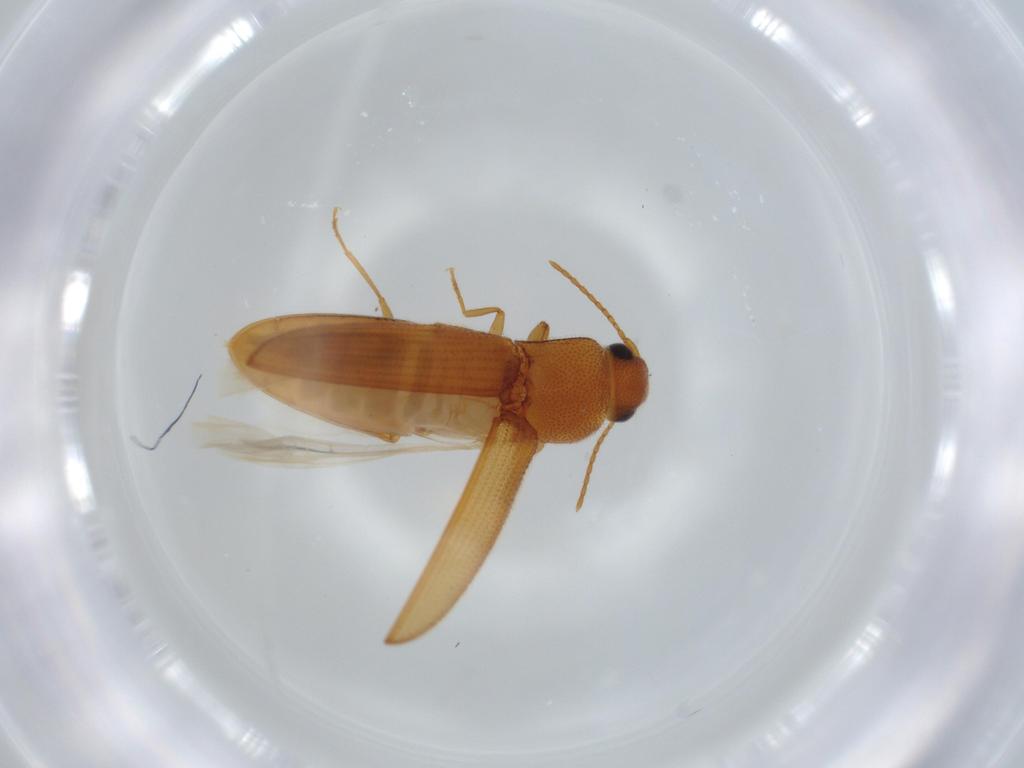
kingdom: Animalia
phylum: Arthropoda
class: Insecta
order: Coleoptera
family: Elateridae
